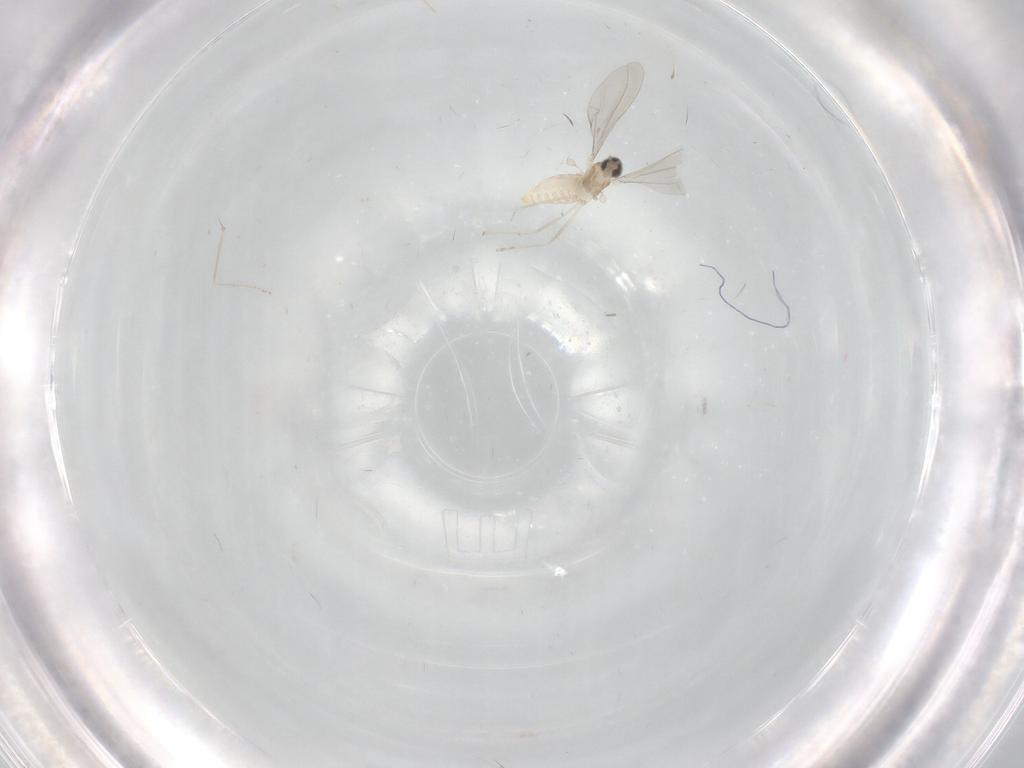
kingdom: Animalia
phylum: Arthropoda
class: Insecta
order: Diptera
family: Cecidomyiidae
